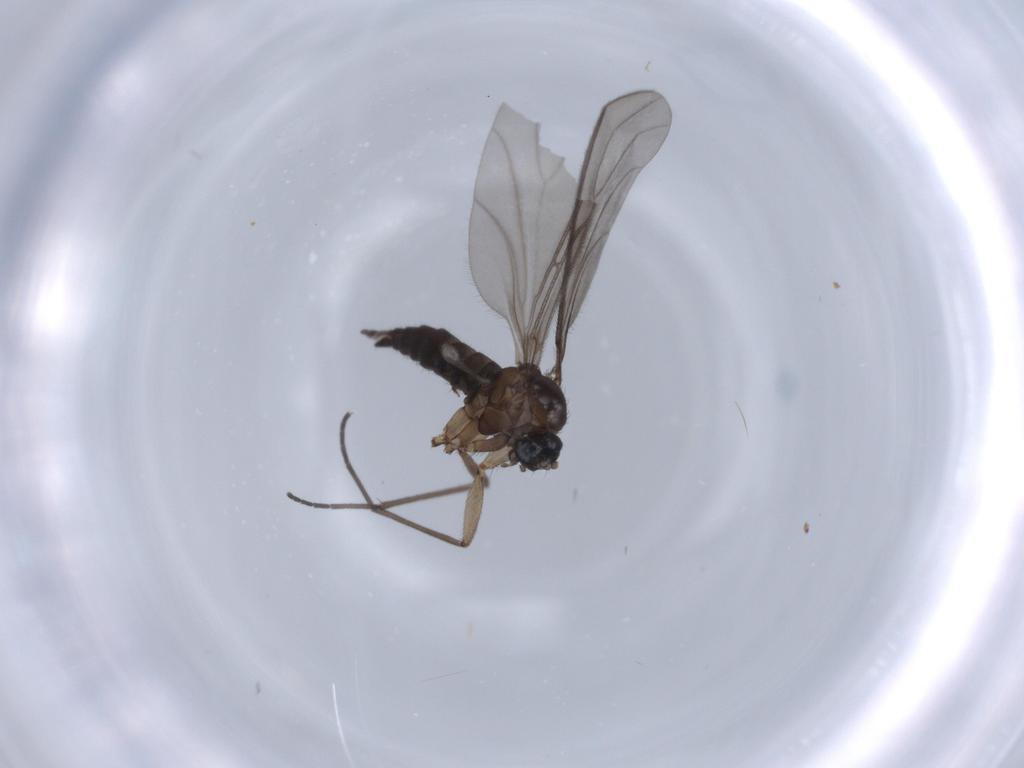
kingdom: Animalia
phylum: Arthropoda
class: Insecta
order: Diptera
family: Sciaridae
